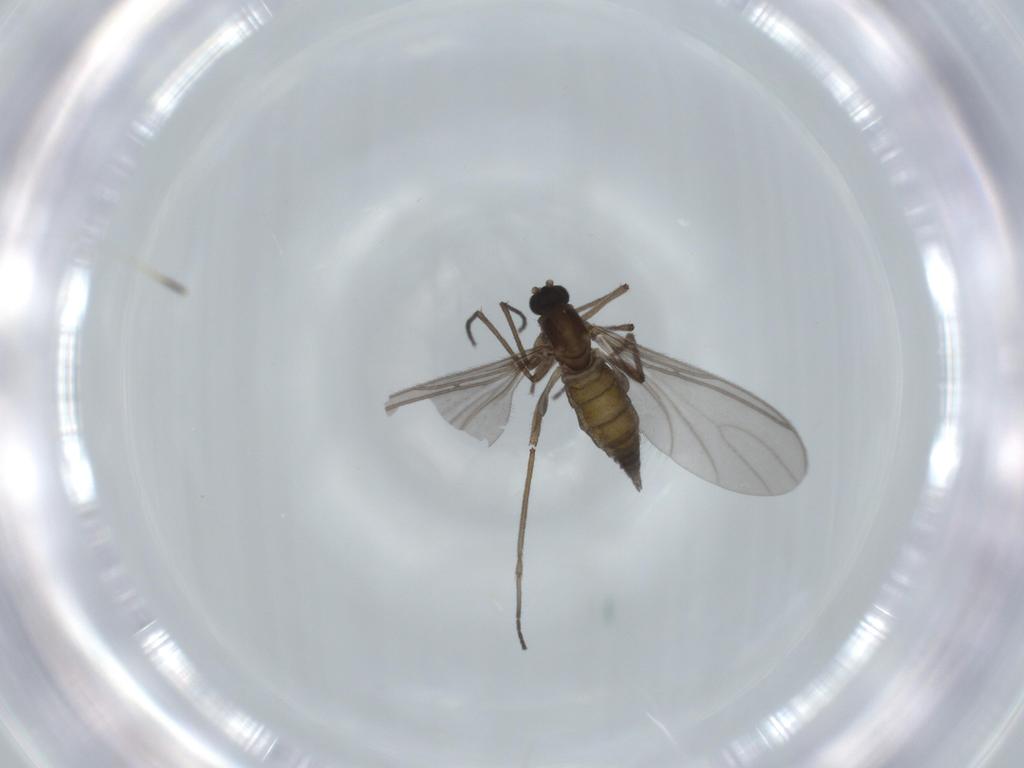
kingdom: Animalia
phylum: Arthropoda
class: Insecta
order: Diptera
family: Sciaridae
